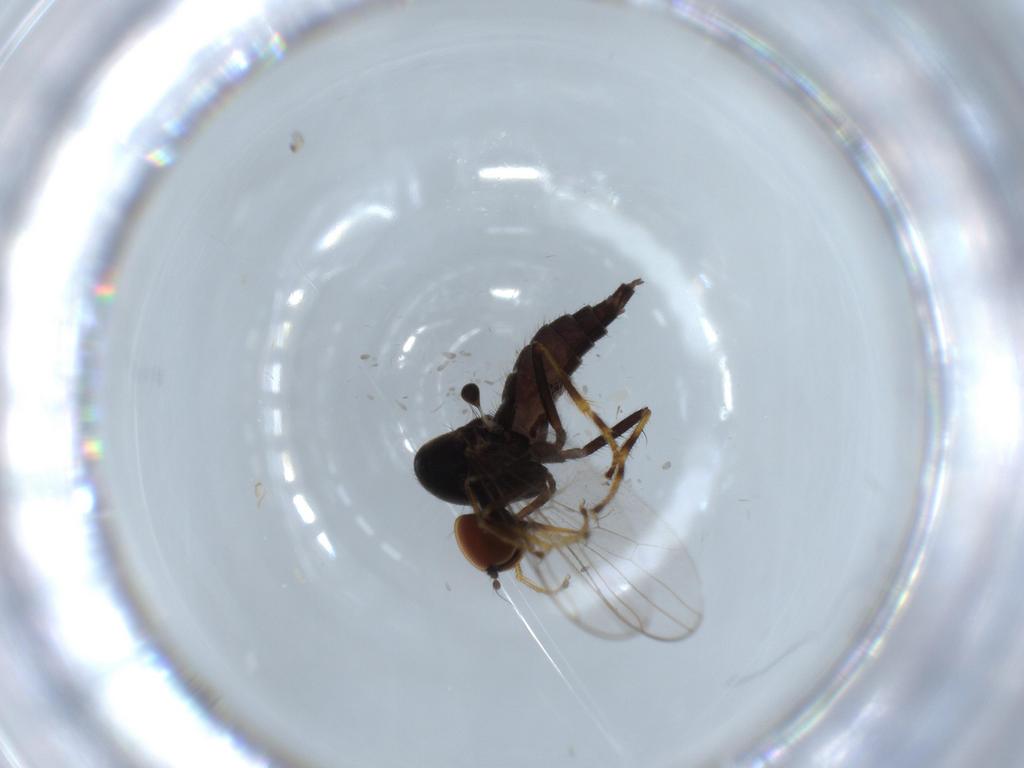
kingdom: Animalia
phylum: Arthropoda
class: Insecta
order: Diptera
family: Hybotidae
